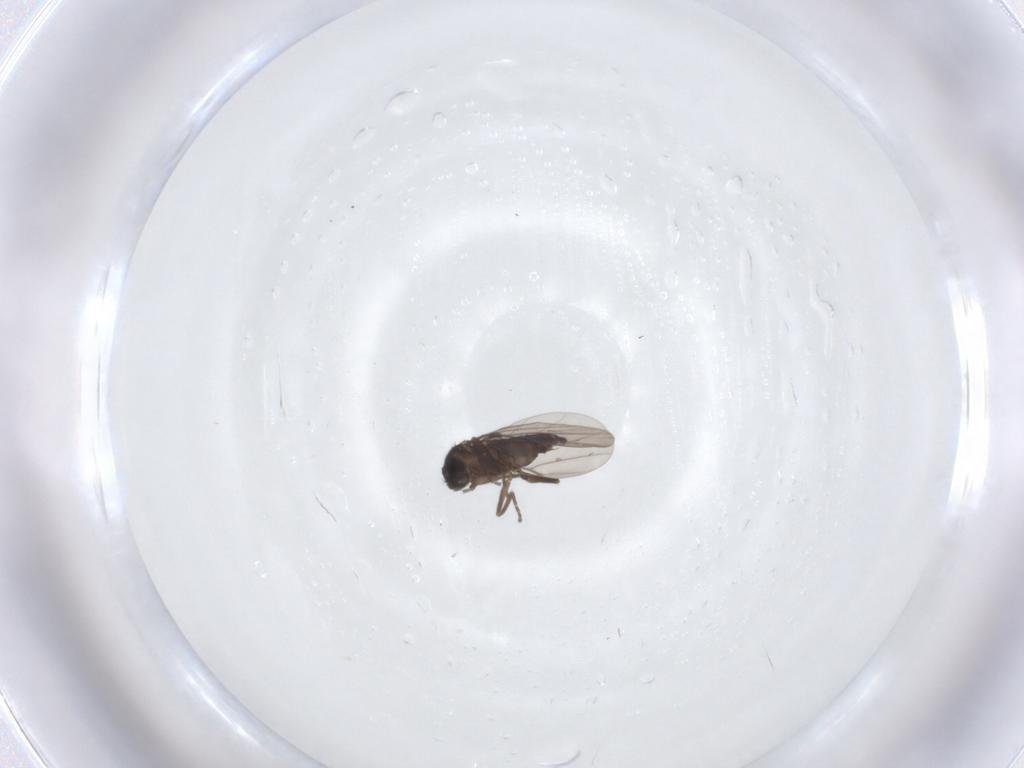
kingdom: Animalia
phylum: Arthropoda
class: Insecta
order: Diptera
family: Phoridae
